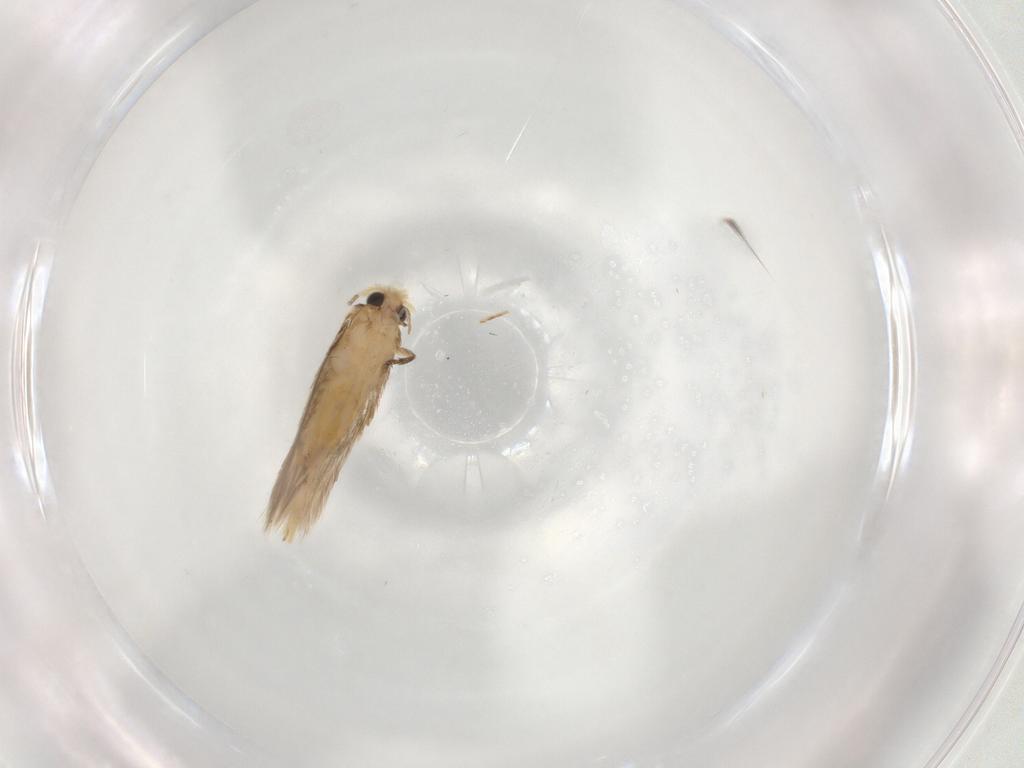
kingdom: Animalia
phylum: Arthropoda
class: Insecta
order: Lepidoptera
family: Nepticulidae
